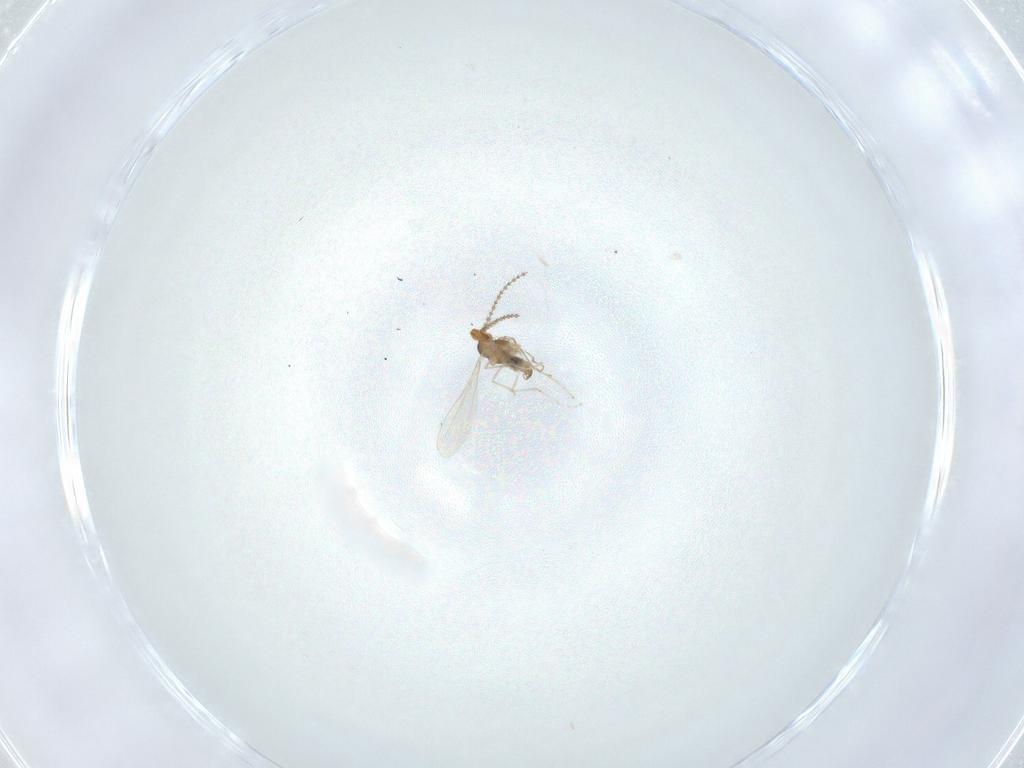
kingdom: Animalia
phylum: Arthropoda
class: Insecta
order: Diptera
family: Cecidomyiidae
